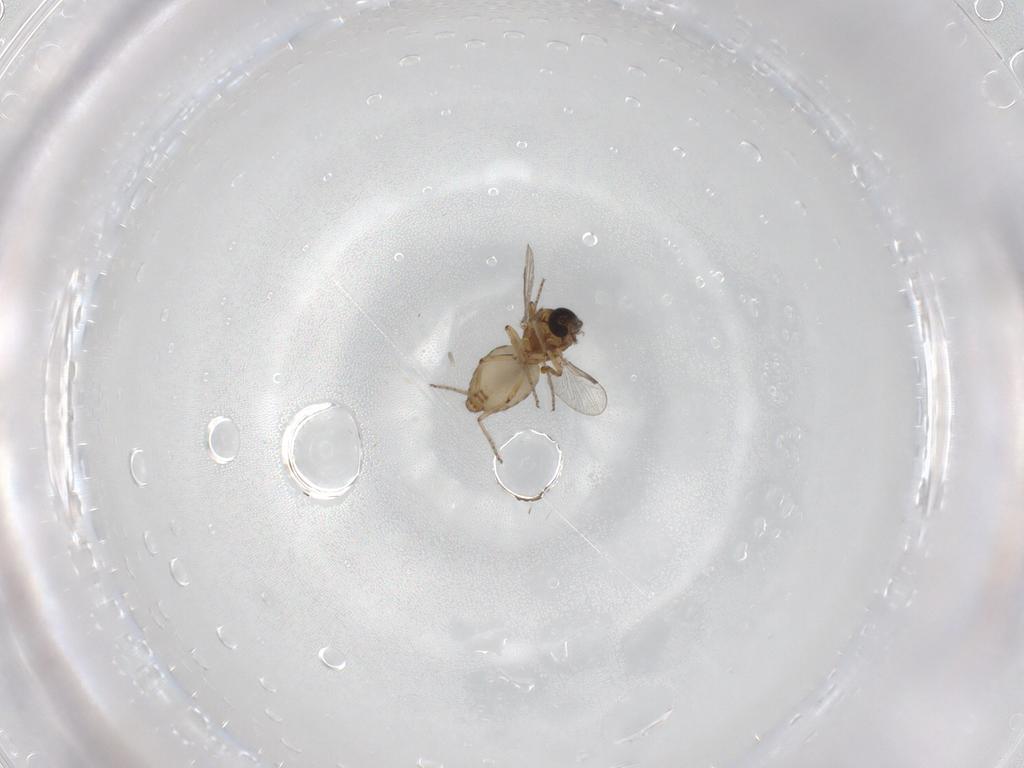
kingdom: Animalia
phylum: Arthropoda
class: Insecta
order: Diptera
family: Ceratopogonidae
